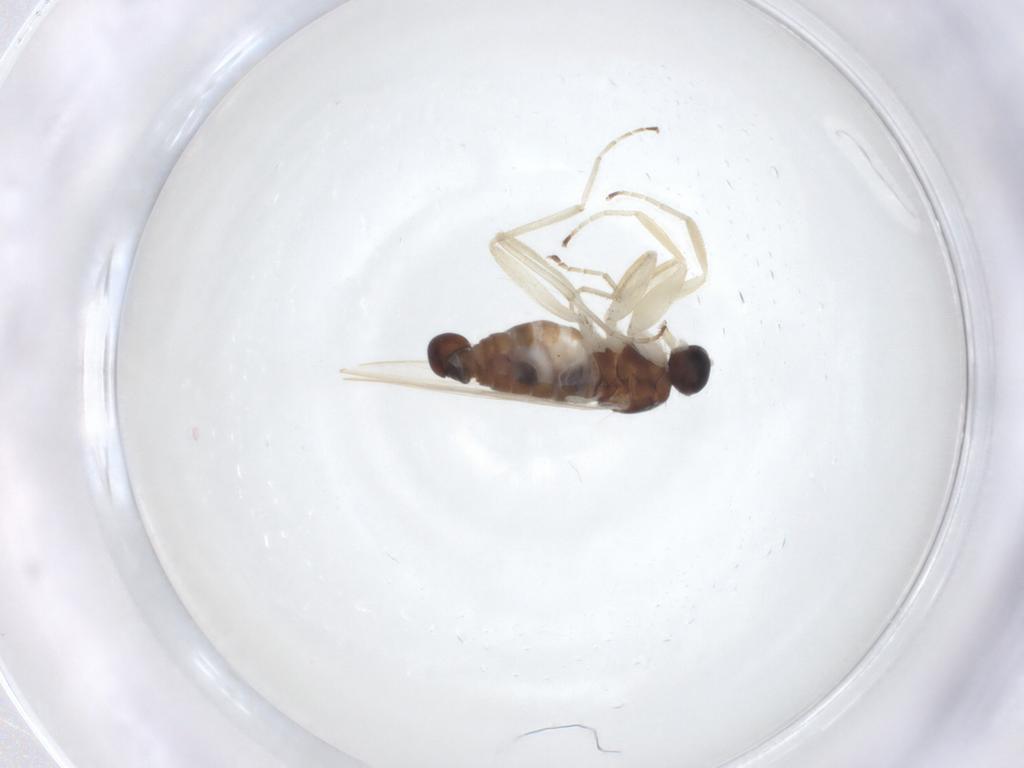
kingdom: Animalia
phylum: Arthropoda
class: Insecta
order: Diptera
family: Hybotidae
